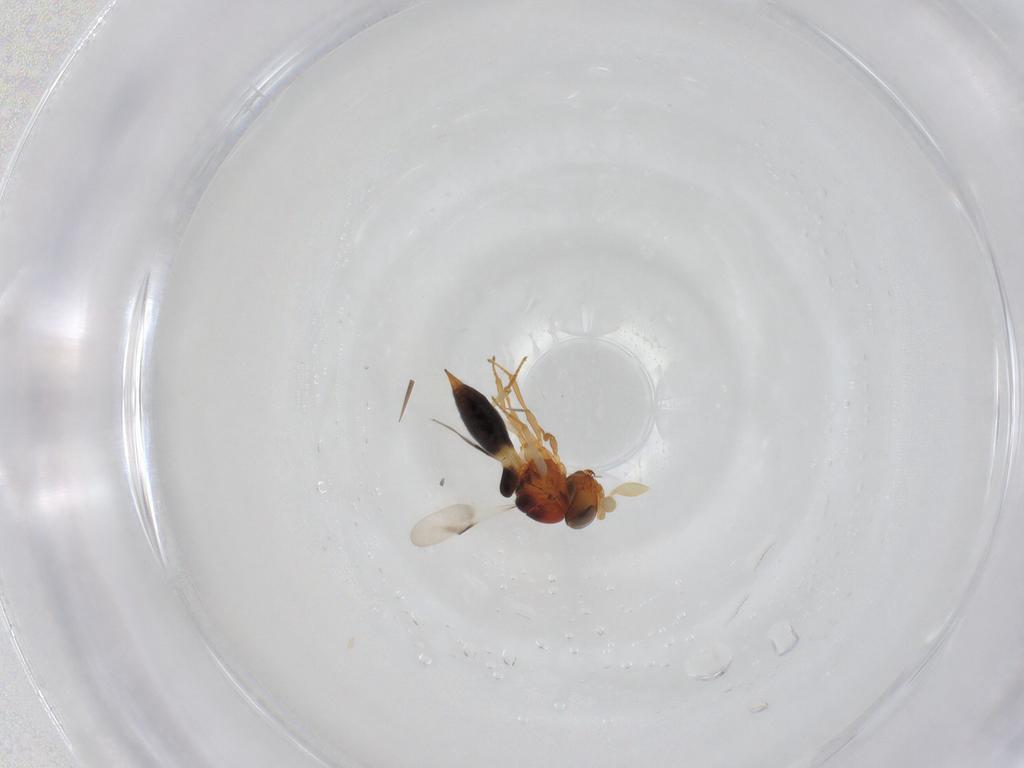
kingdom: Animalia
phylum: Arthropoda
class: Insecta
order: Hymenoptera
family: Scelionidae
